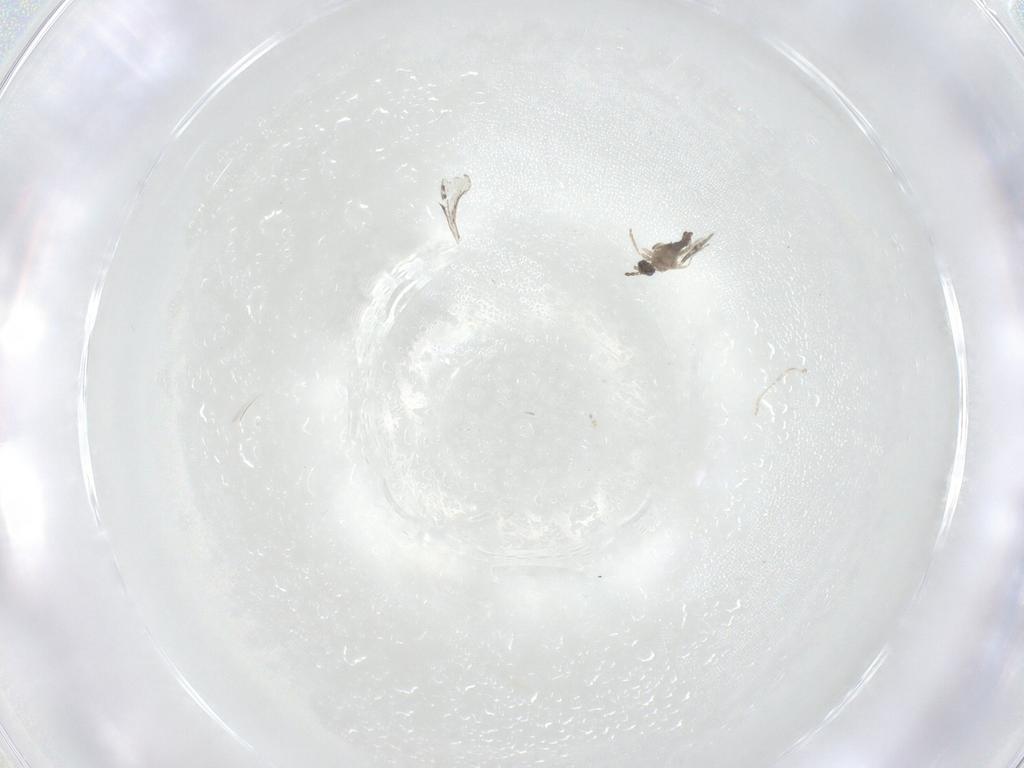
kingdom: Animalia
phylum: Arthropoda
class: Insecta
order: Diptera
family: Cecidomyiidae
